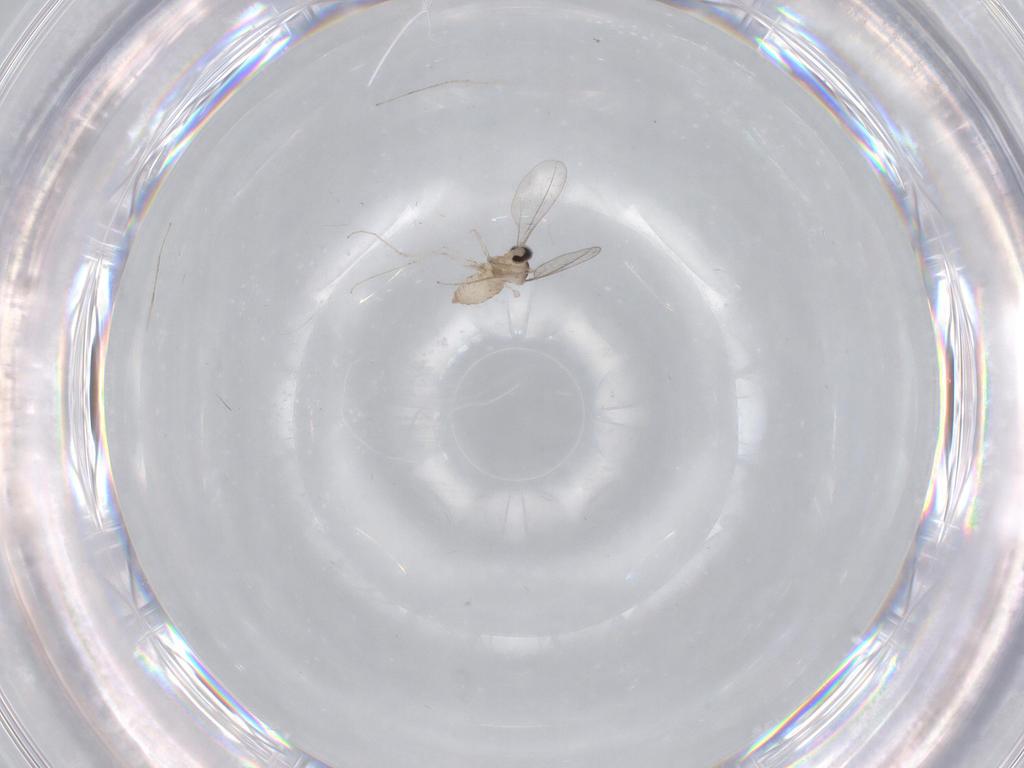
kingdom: Animalia
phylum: Arthropoda
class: Insecta
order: Diptera
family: Cecidomyiidae
